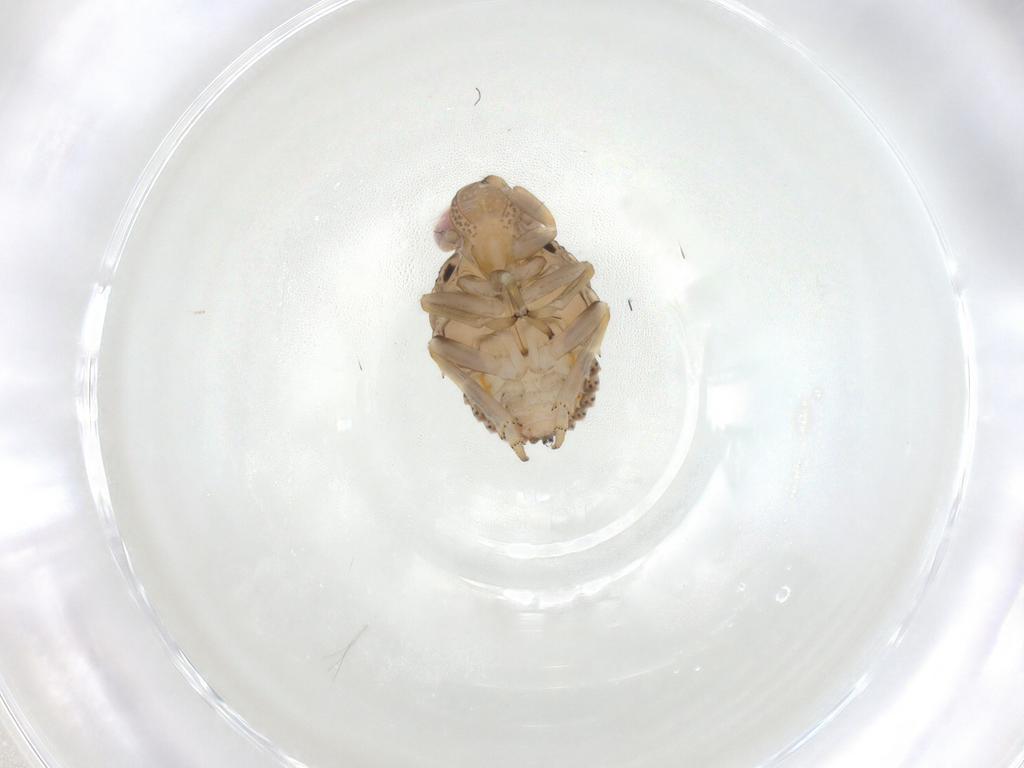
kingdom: Animalia
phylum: Arthropoda
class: Insecta
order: Hemiptera
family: Issidae
